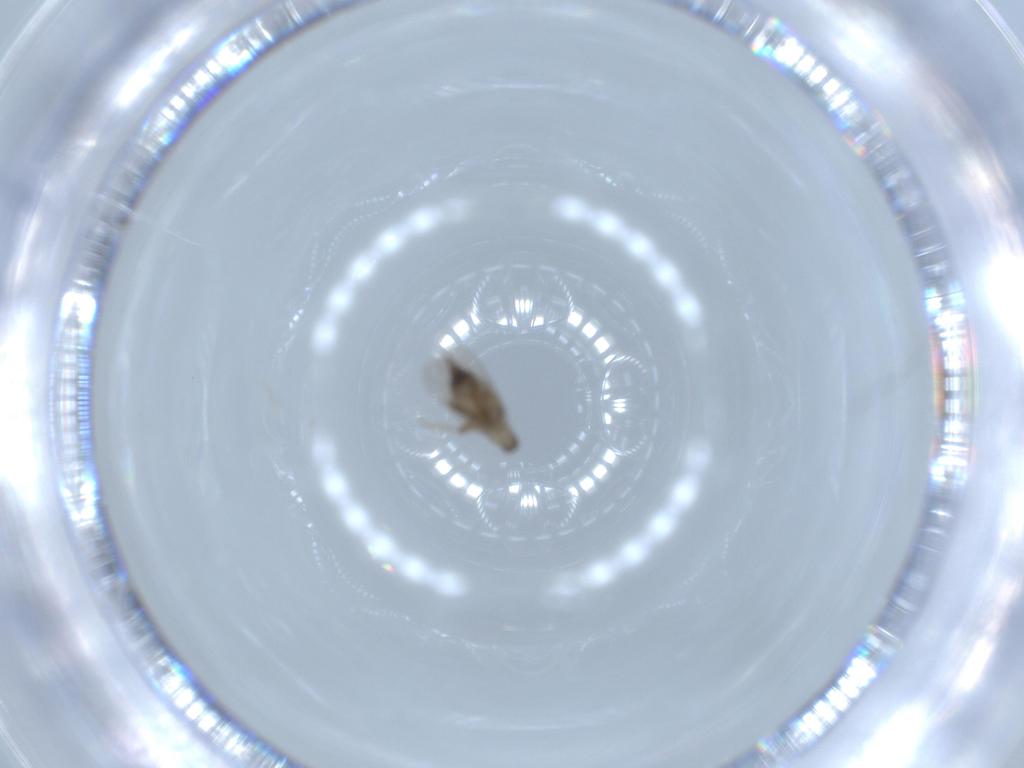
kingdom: Animalia
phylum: Arthropoda
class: Insecta
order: Diptera
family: Phoridae
